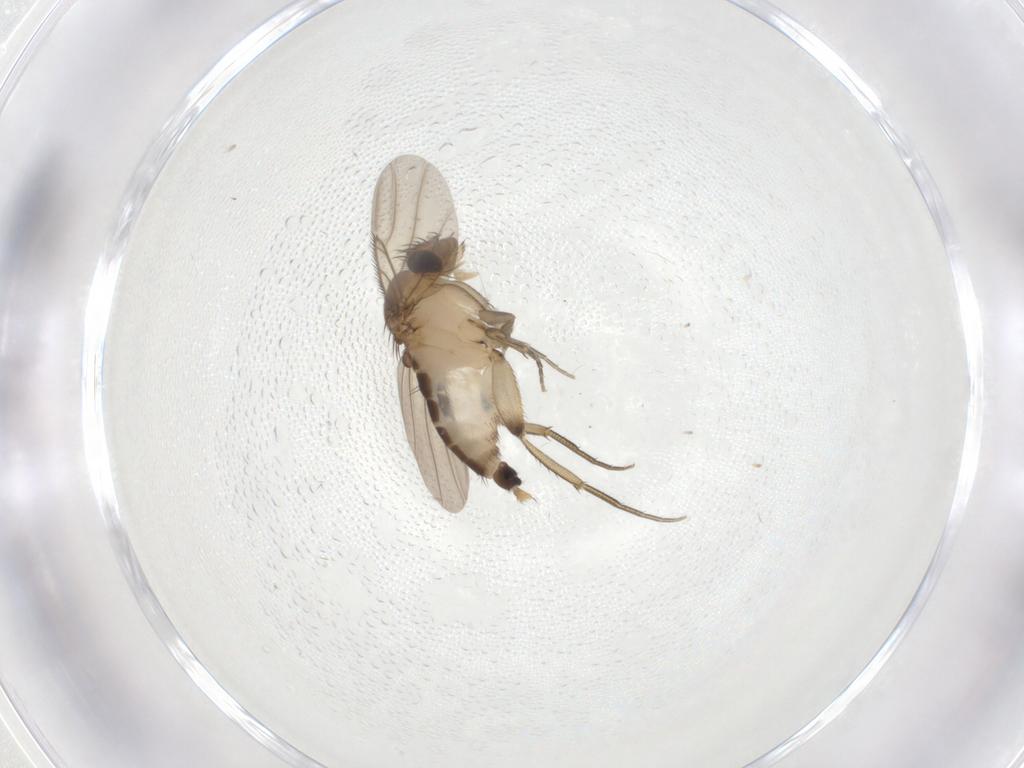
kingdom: Animalia
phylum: Arthropoda
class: Insecta
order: Diptera
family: Phoridae
